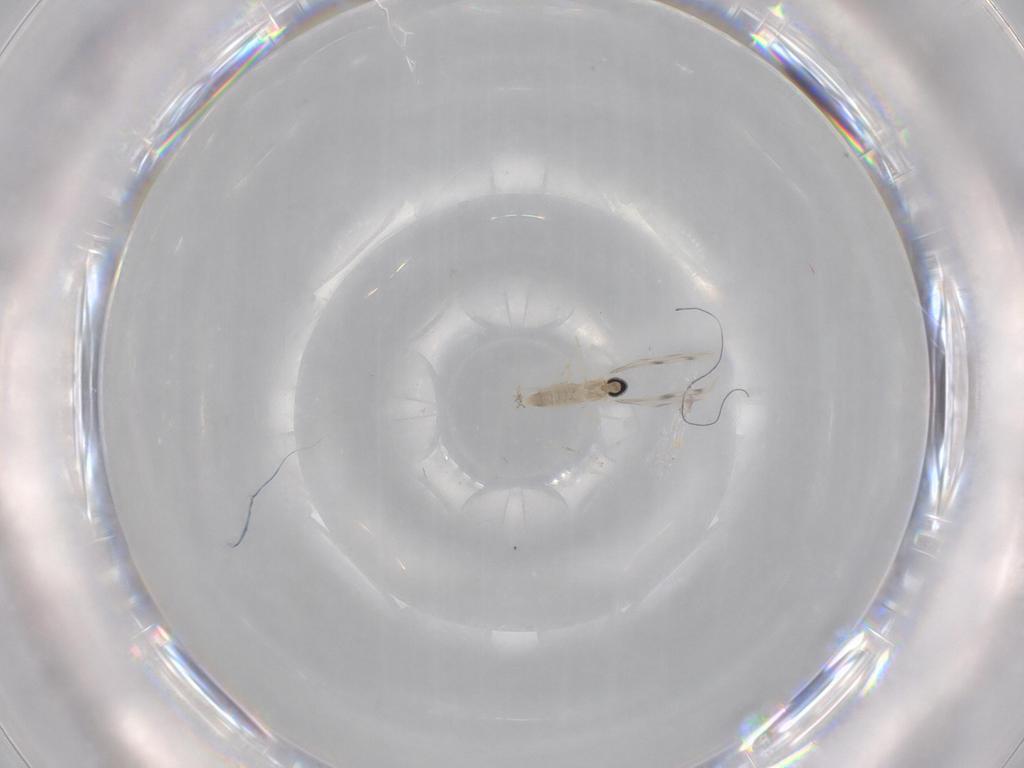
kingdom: Animalia
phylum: Arthropoda
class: Insecta
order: Diptera
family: Cecidomyiidae
